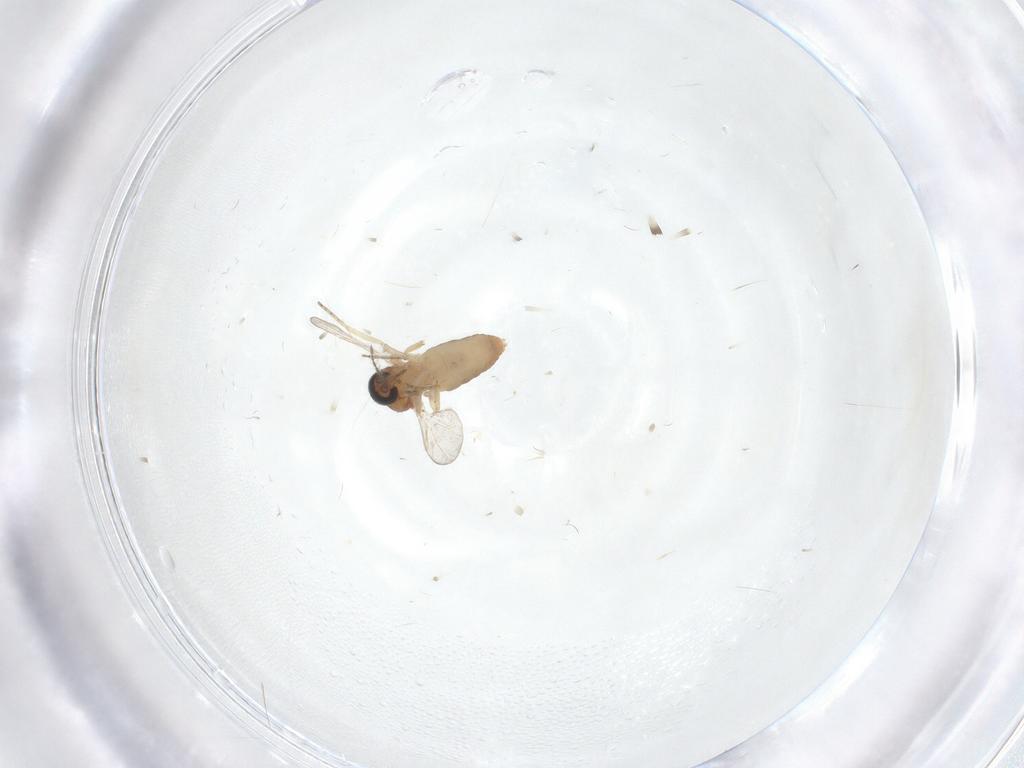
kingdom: Animalia
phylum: Arthropoda
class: Insecta
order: Diptera
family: Ceratopogonidae
